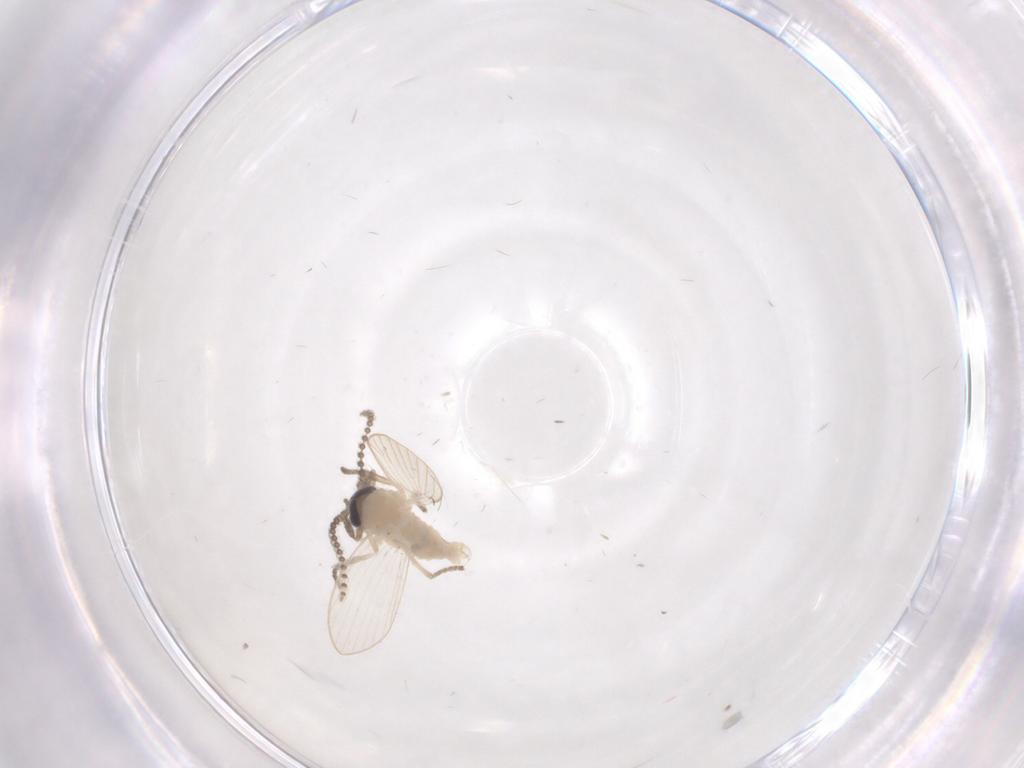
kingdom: Animalia
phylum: Arthropoda
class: Insecta
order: Diptera
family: Psychodidae
